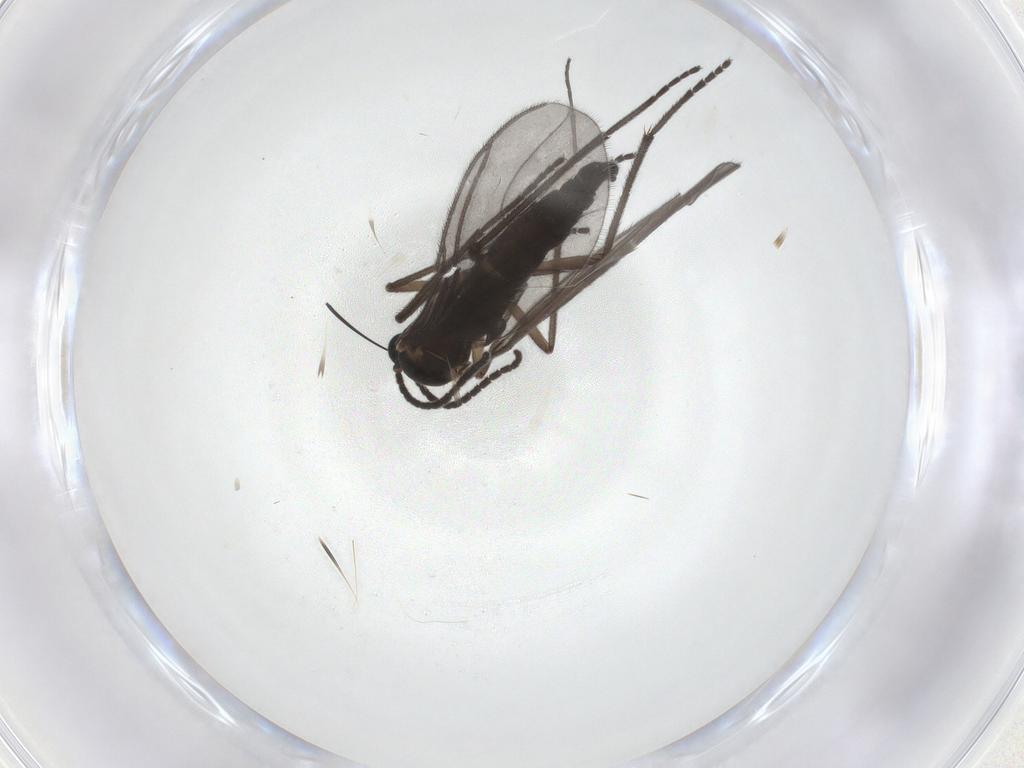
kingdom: Animalia
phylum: Arthropoda
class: Insecta
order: Diptera
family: Sciaridae
